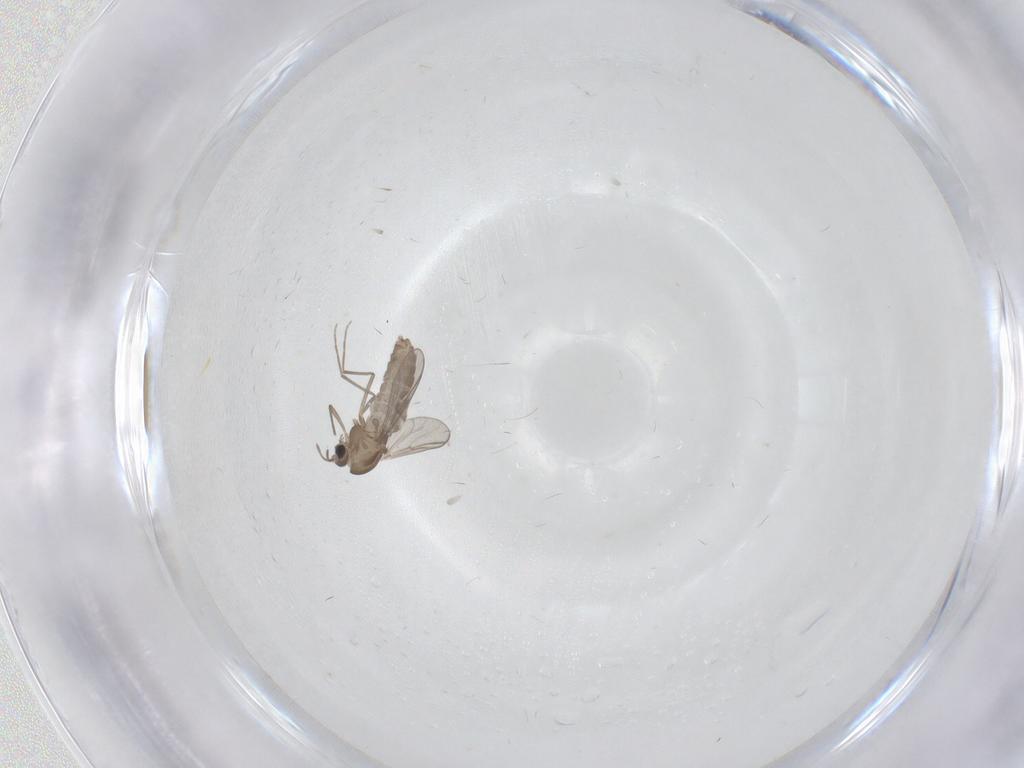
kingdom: Animalia
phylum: Arthropoda
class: Insecta
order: Diptera
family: Chironomidae
